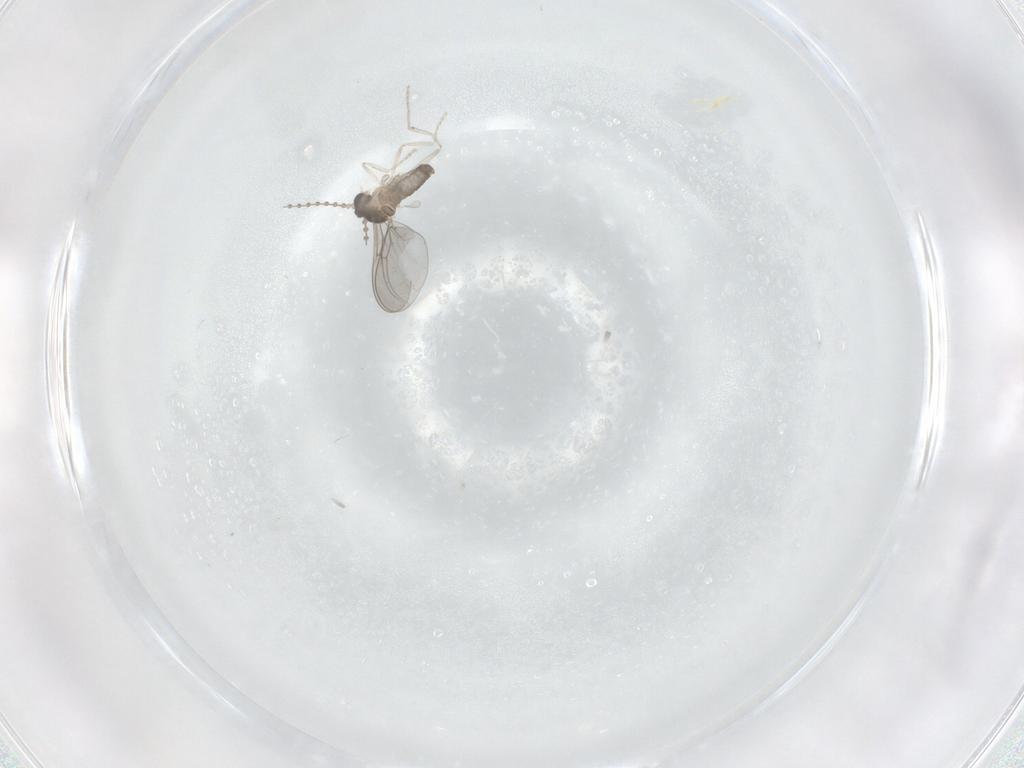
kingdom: Animalia
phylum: Arthropoda
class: Insecta
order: Diptera
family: Cecidomyiidae
